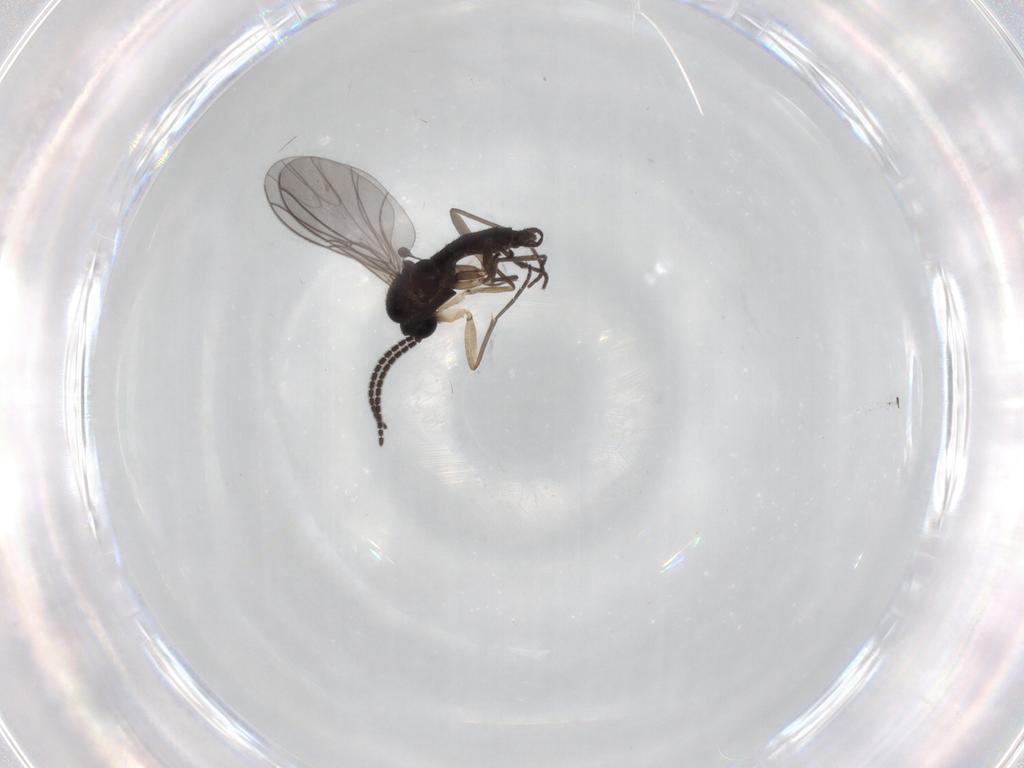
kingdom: Animalia
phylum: Arthropoda
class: Insecta
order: Diptera
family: Sciaridae
